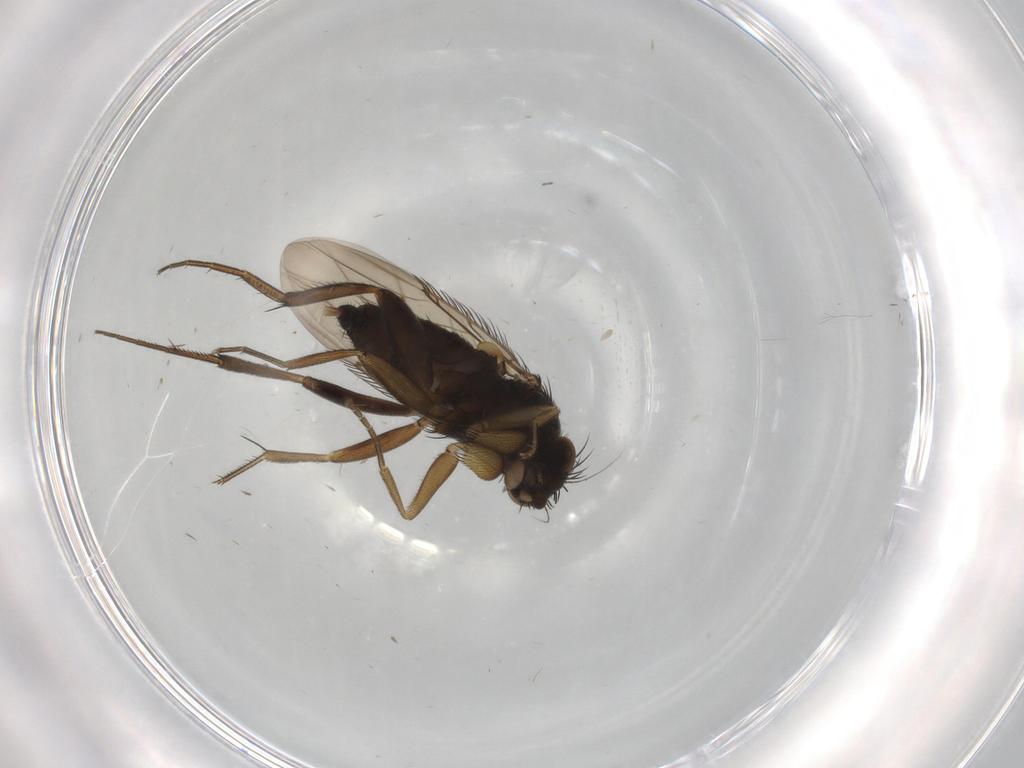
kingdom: Animalia
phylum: Arthropoda
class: Insecta
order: Diptera
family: Phoridae
